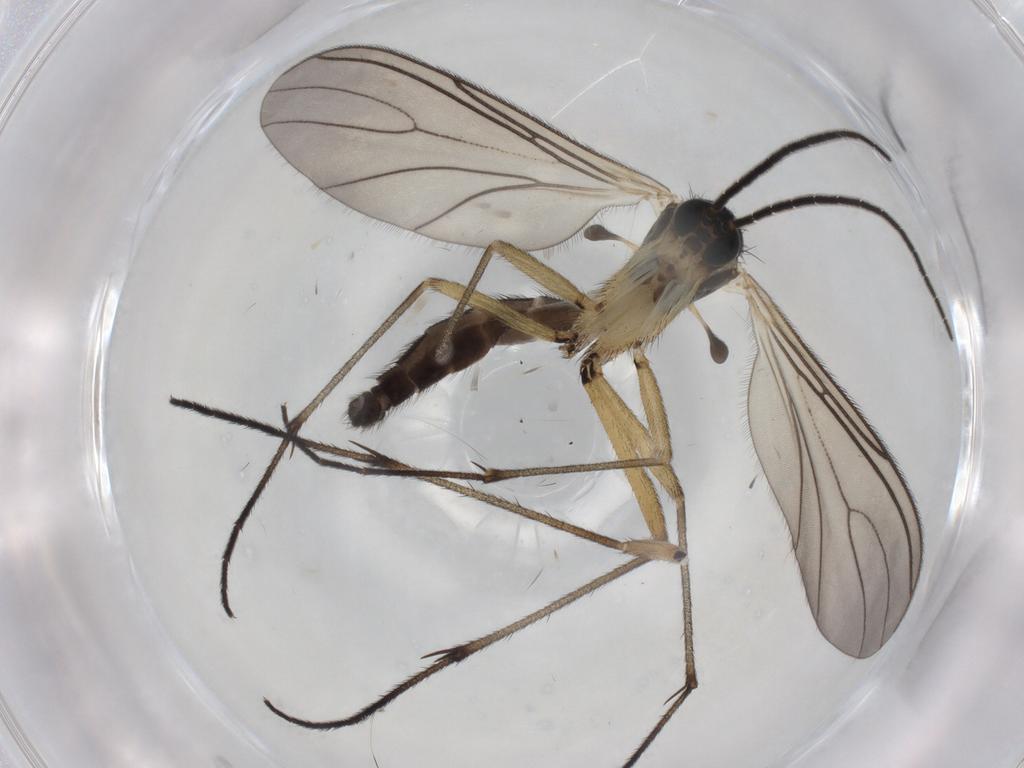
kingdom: Animalia
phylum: Arthropoda
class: Insecta
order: Diptera
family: Sciaridae
